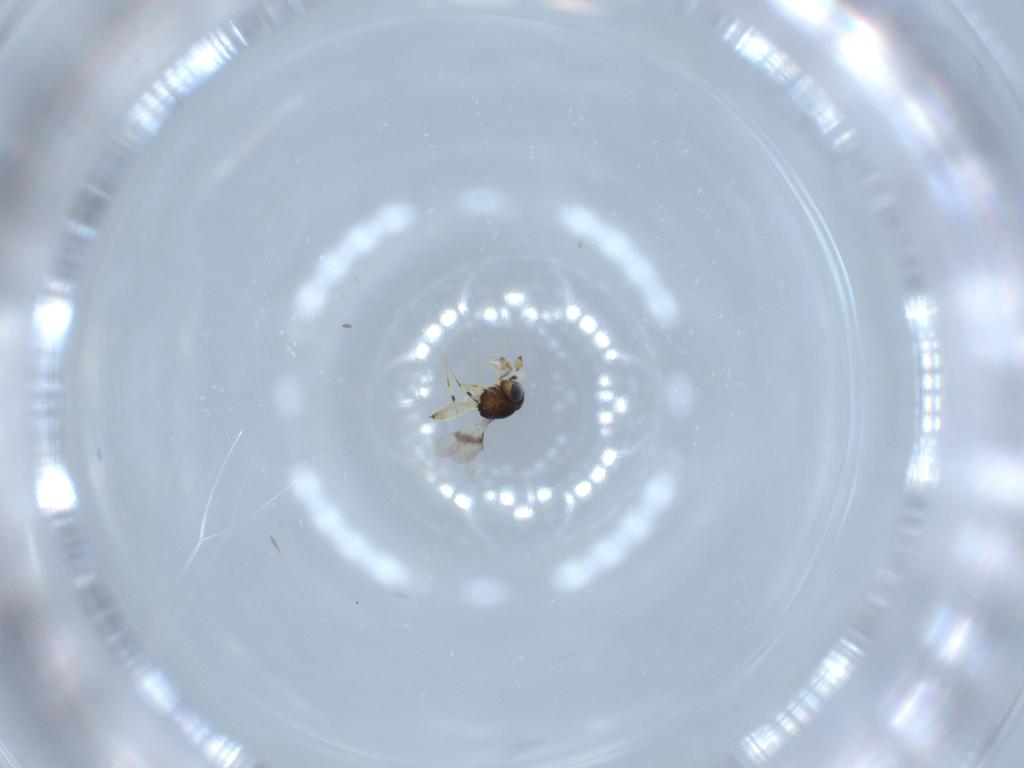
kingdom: Animalia
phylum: Arthropoda
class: Insecta
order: Hymenoptera
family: Scelionidae
